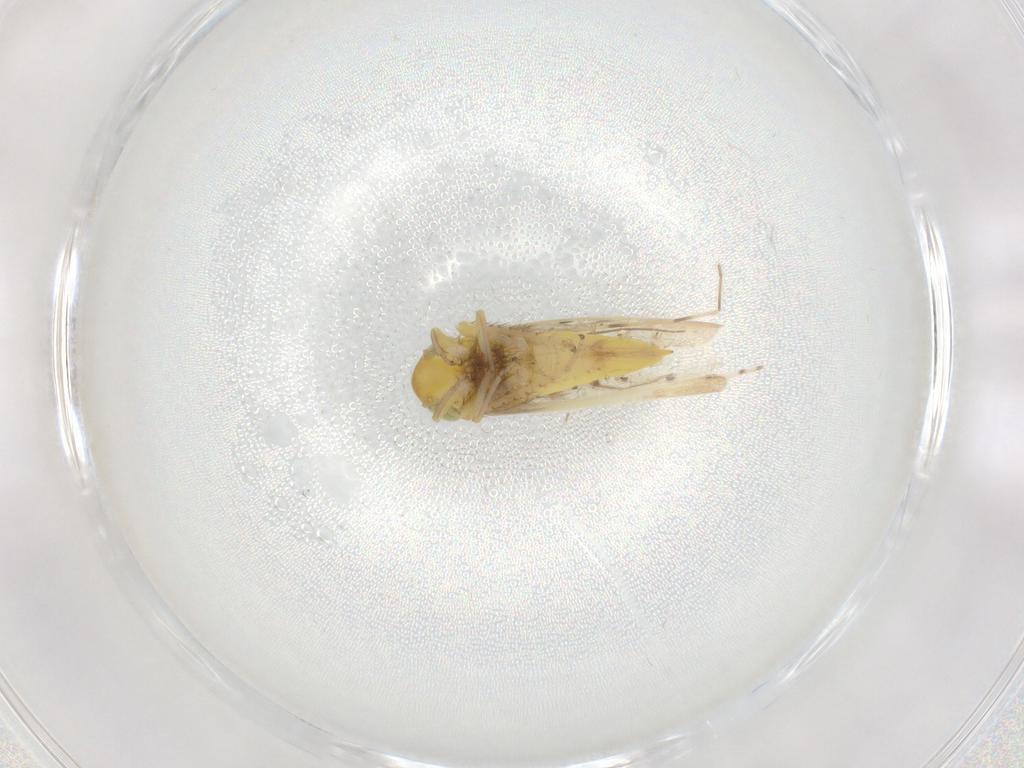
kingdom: Animalia
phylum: Arthropoda
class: Insecta
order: Hemiptera
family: Cicadellidae
